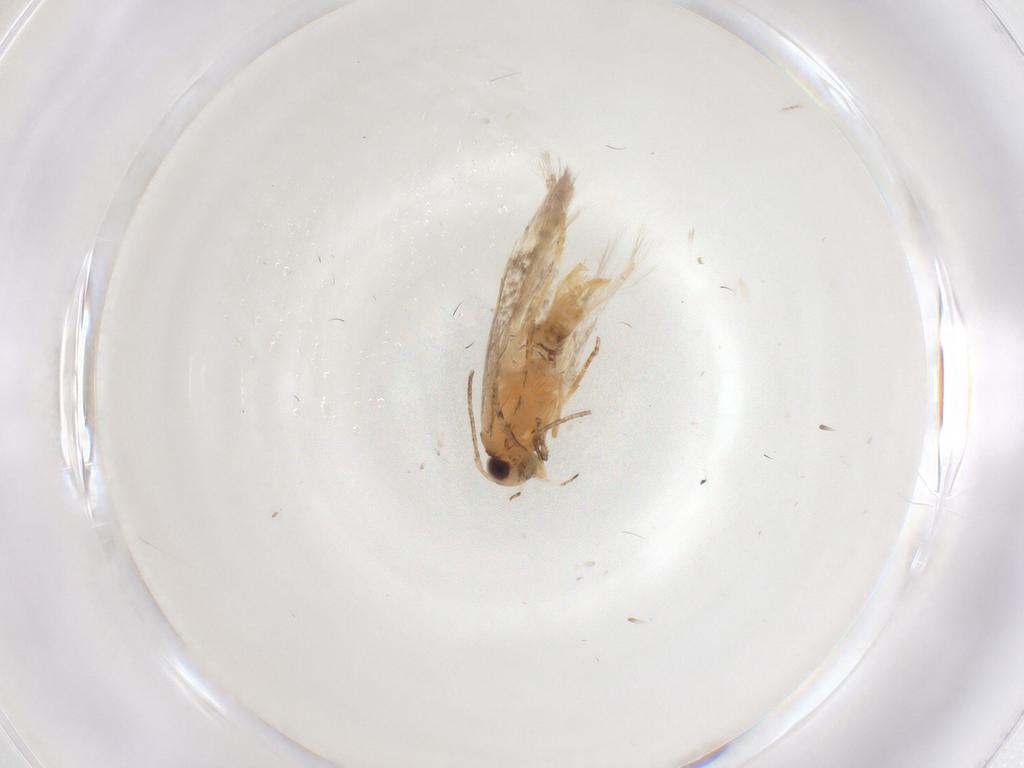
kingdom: Animalia
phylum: Arthropoda
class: Insecta
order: Lepidoptera
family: Gelechiidae
